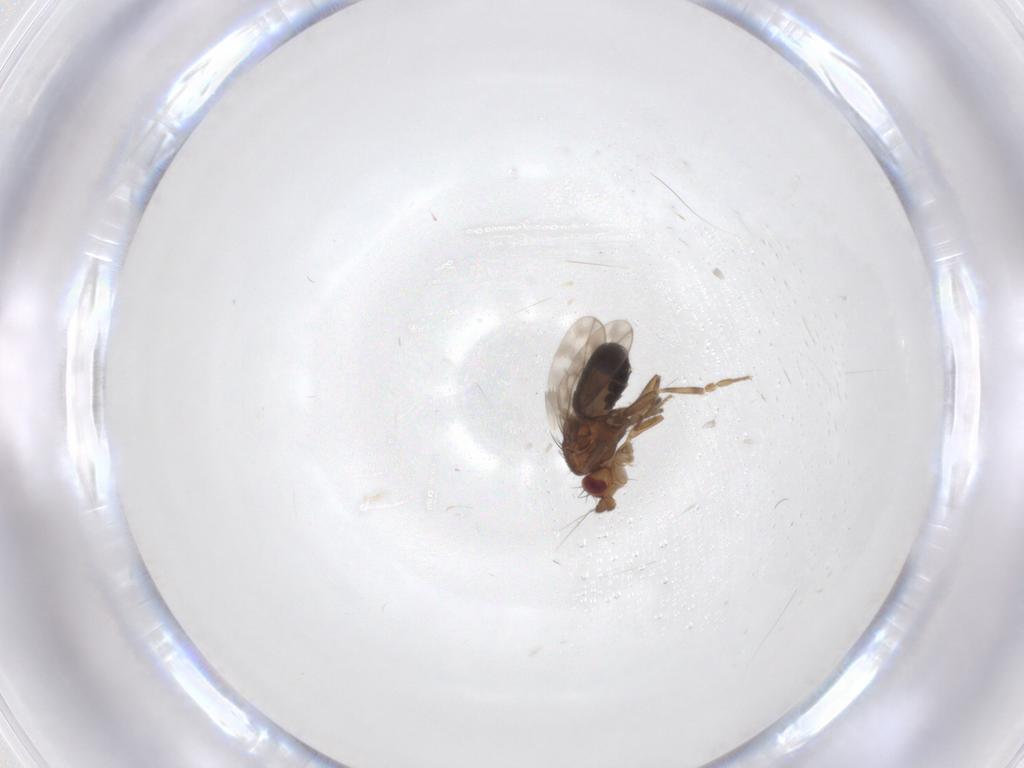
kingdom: Animalia
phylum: Arthropoda
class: Insecta
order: Diptera
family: Sphaeroceridae
